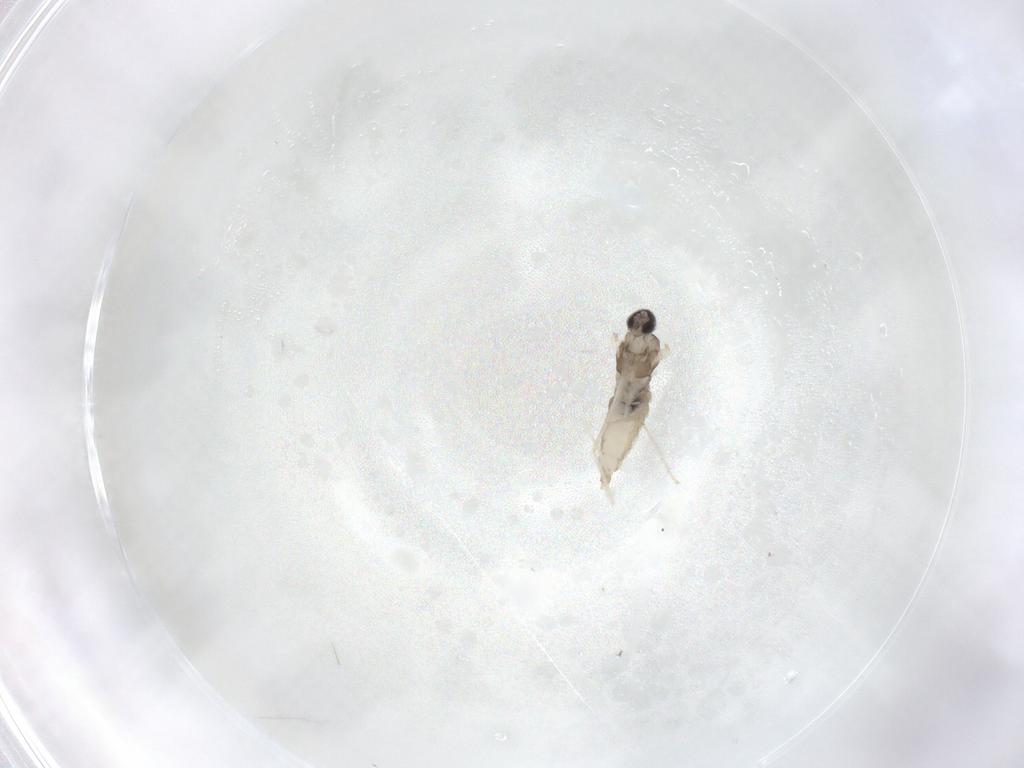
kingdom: Animalia
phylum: Arthropoda
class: Insecta
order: Diptera
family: Cecidomyiidae
